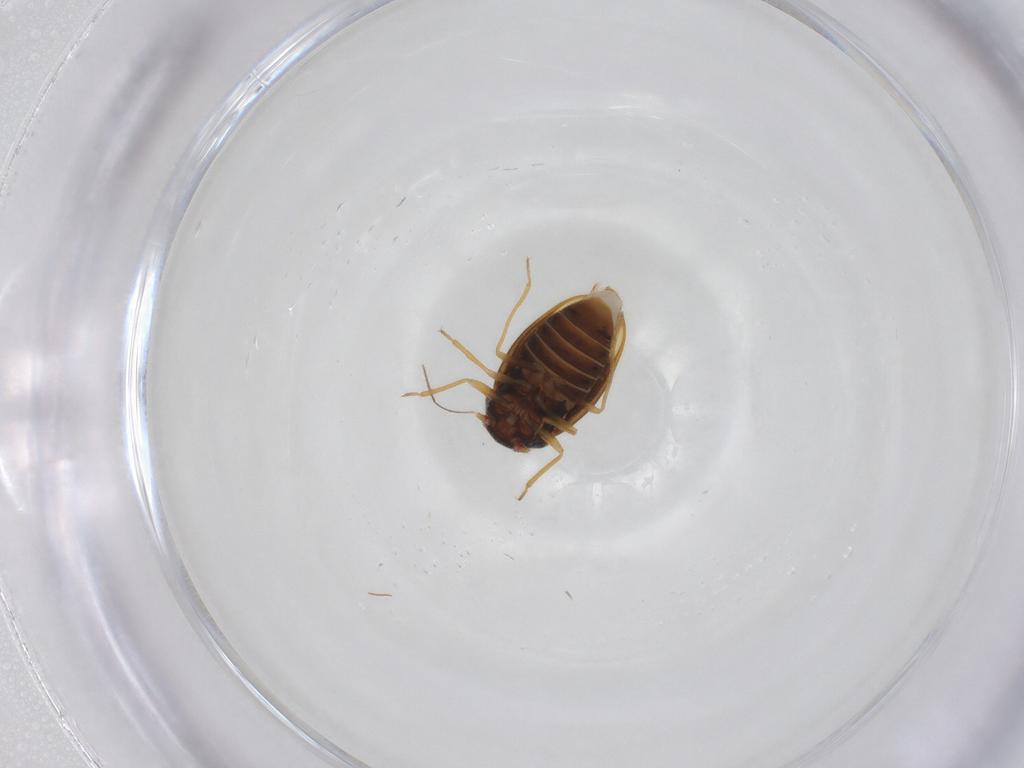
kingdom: Animalia
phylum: Arthropoda
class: Insecta
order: Hemiptera
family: Schizopteridae
